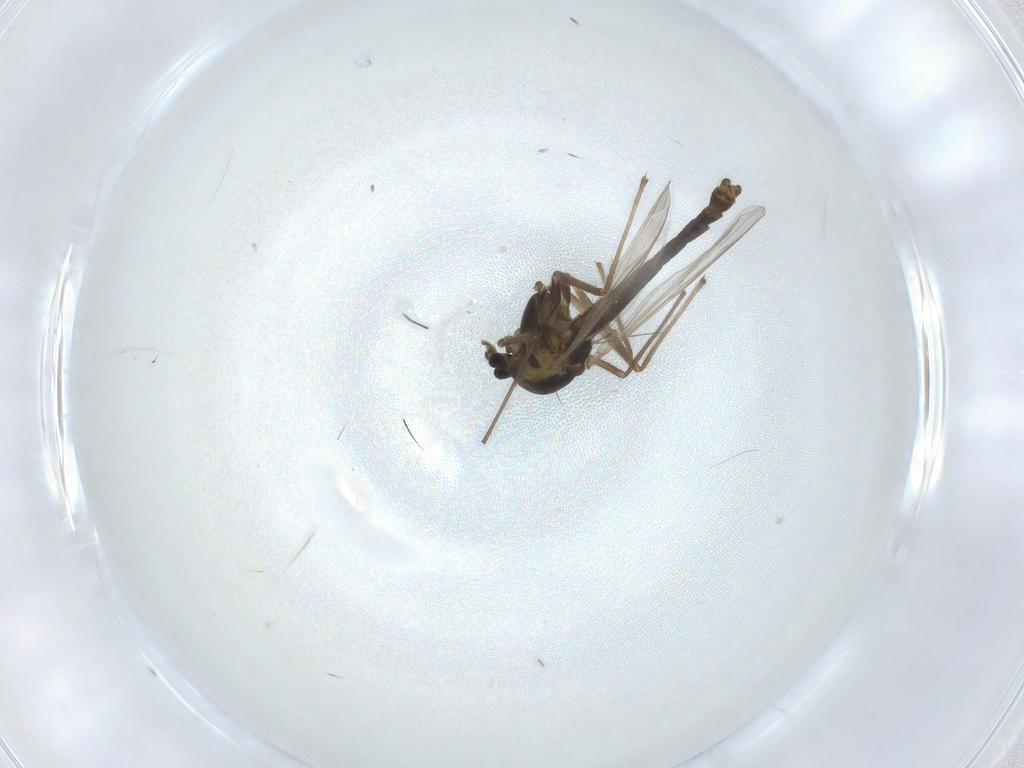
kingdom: Animalia
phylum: Arthropoda
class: Insecta
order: Diptera
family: Chironomidae
